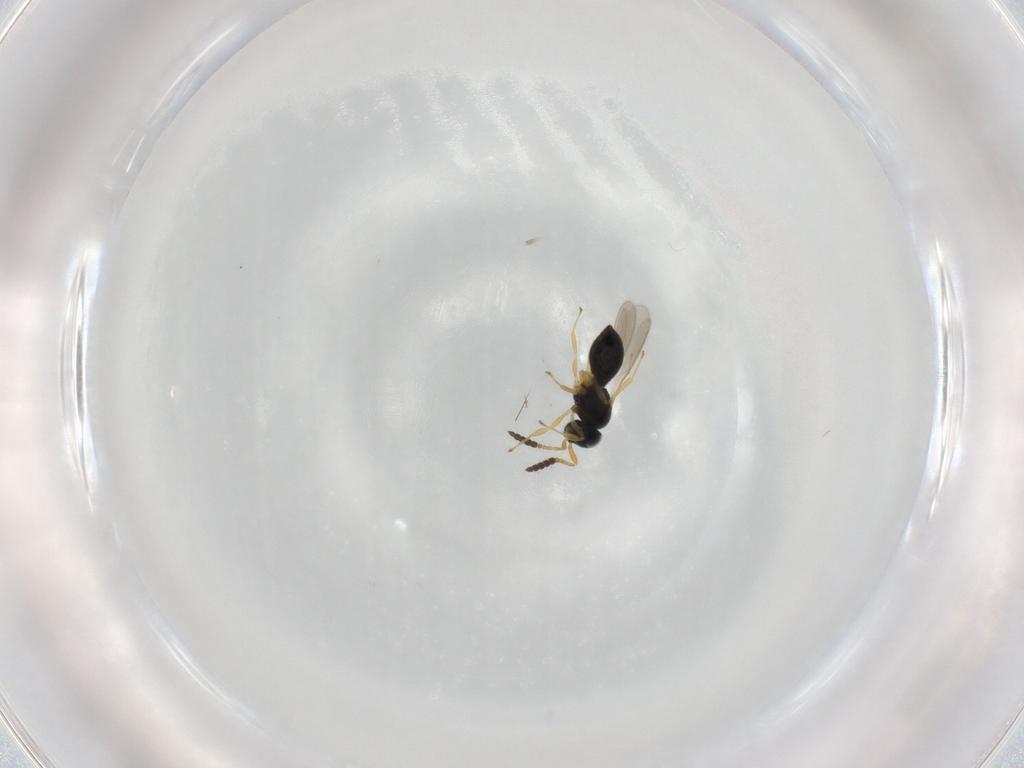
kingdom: Animalia
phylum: Arthropoda
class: Insecta
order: Hymenoptera
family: Scelionidae
